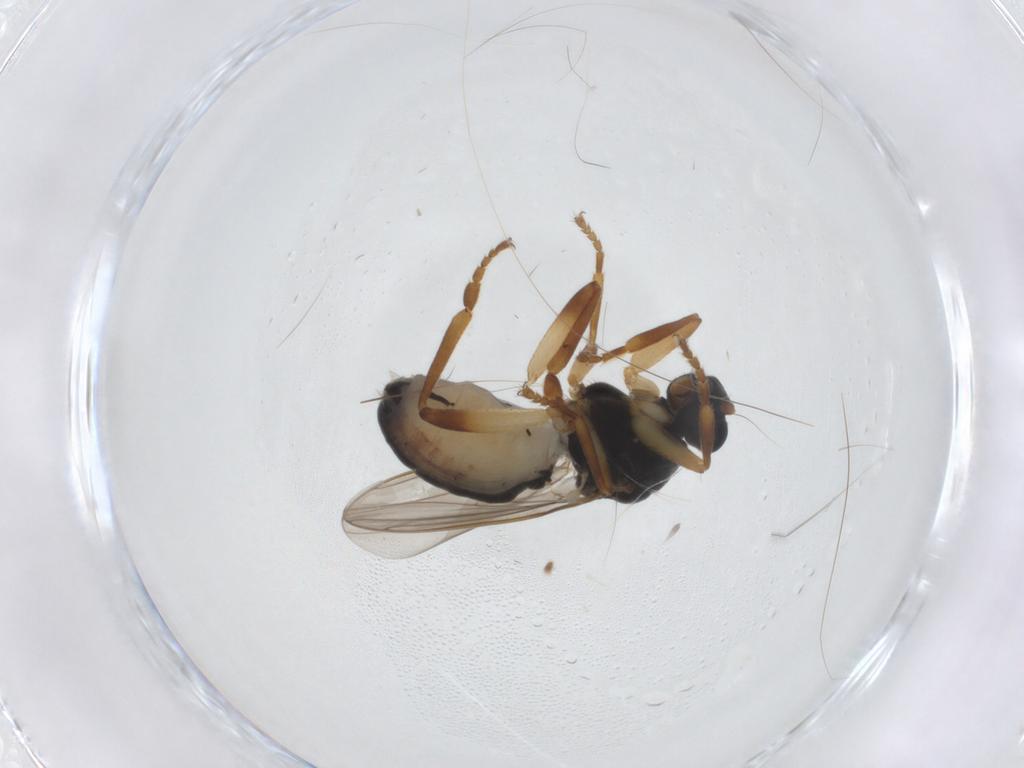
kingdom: Animalia
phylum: Arthropoda
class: Insecta
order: Diptera
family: Sphaeroceridae
